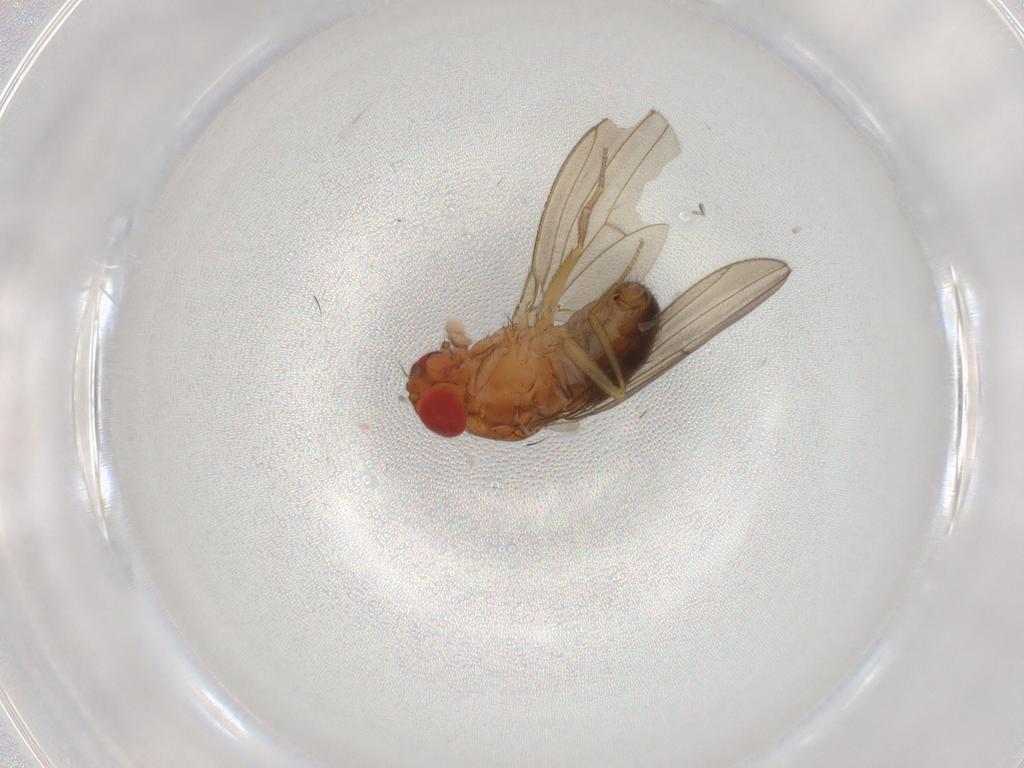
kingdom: Animalia
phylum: Arthropoda
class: Insecta
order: Diptera
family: Drosophilidae
